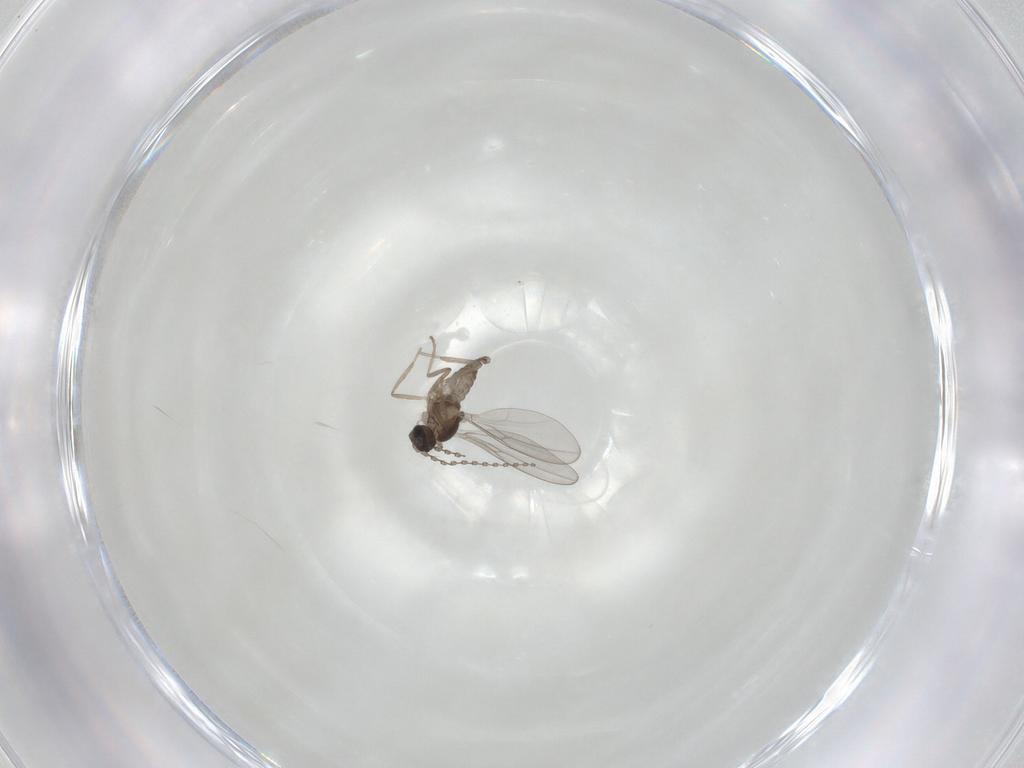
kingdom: Animalia
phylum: Arthropoda
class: Insecta
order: Diptera
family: Cecidomyiidae
